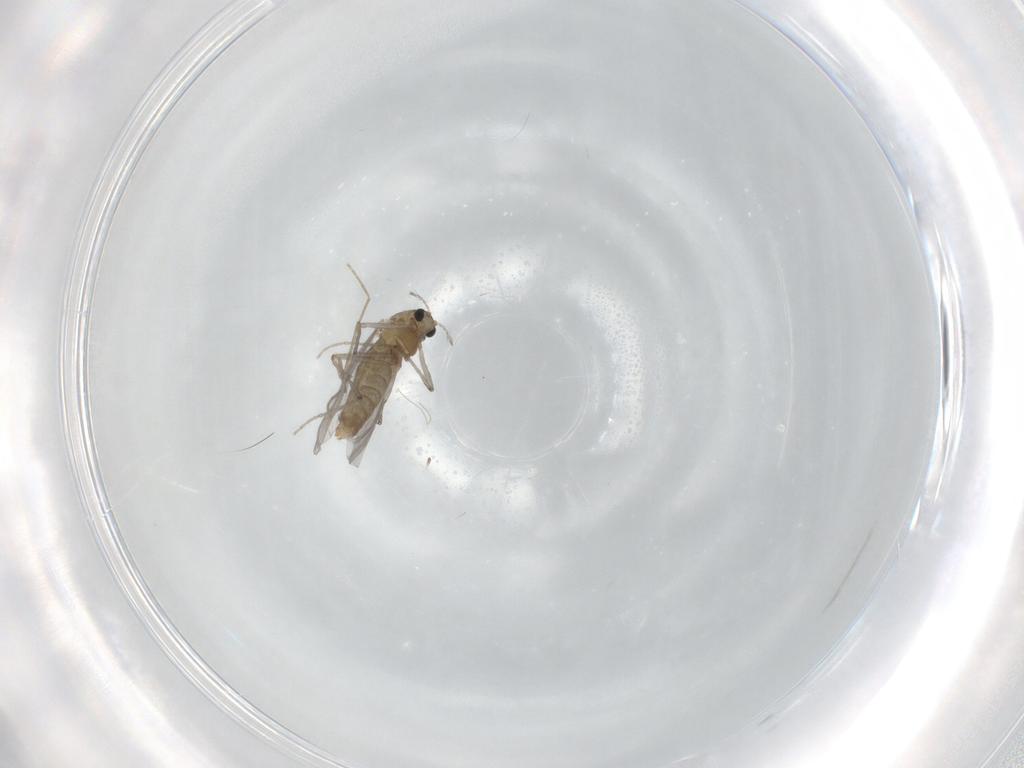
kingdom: Animalia
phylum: Arthropoda
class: Insecta
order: Diptera
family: Chironomidae
